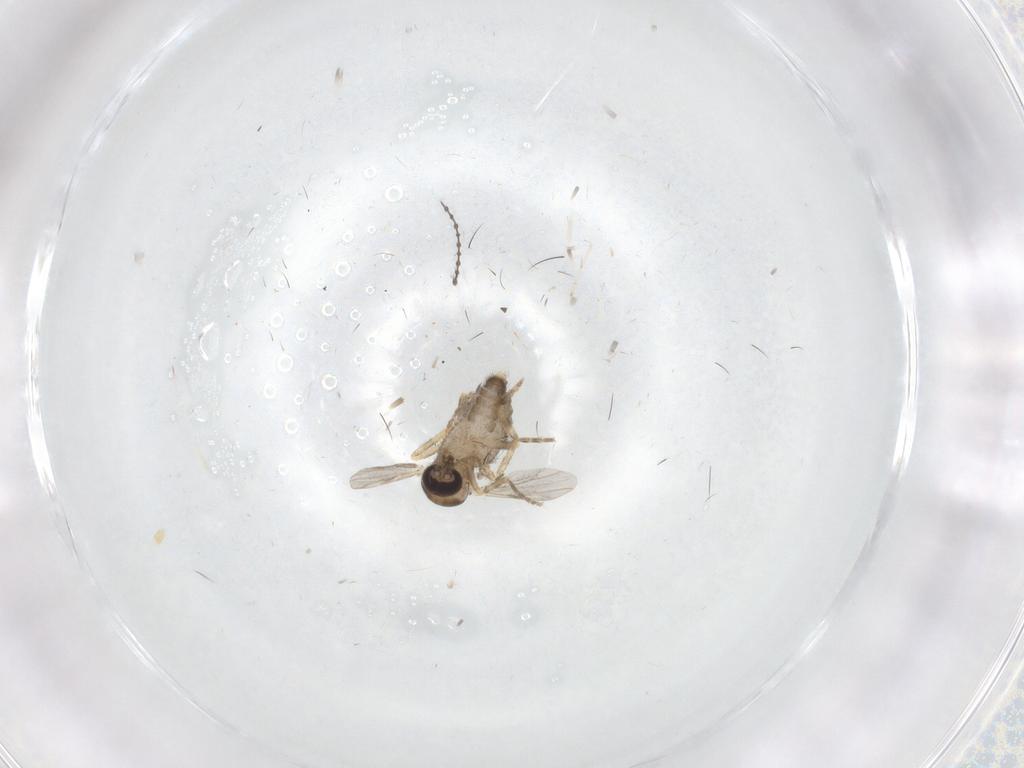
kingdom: Animalia
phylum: Arthropoda
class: Insecta
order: Diptera
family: Ceratopogonidae
